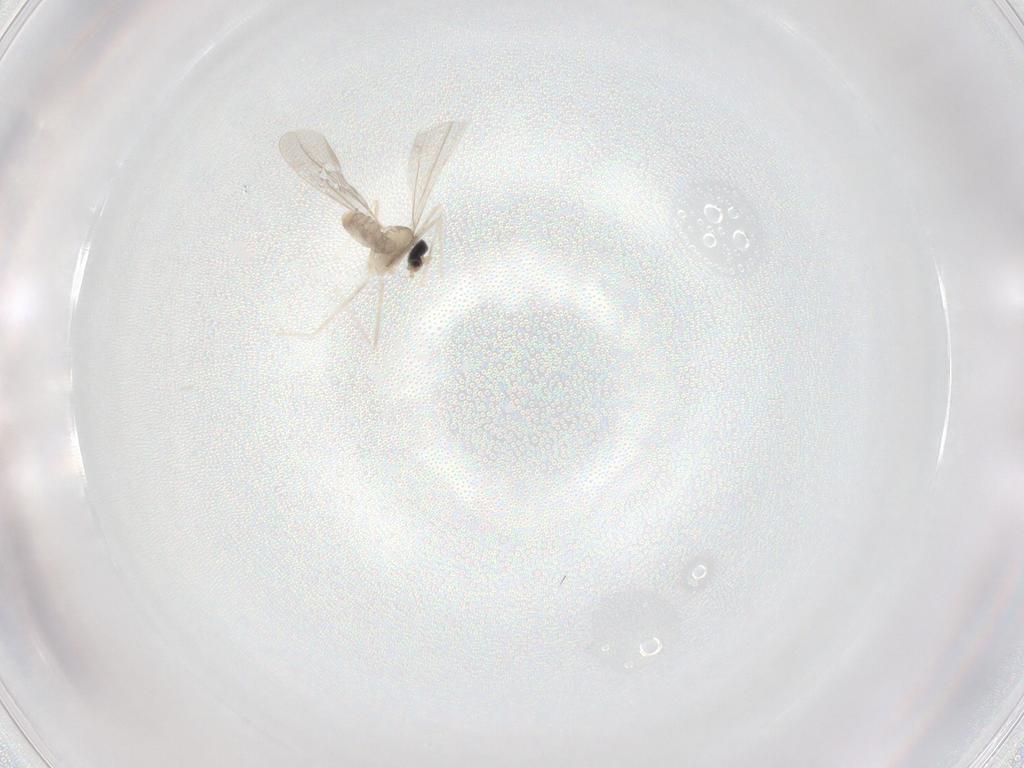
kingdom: Animalia
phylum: Arthropoda
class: Insecta
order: Diptera
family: Cecidomyiidae
